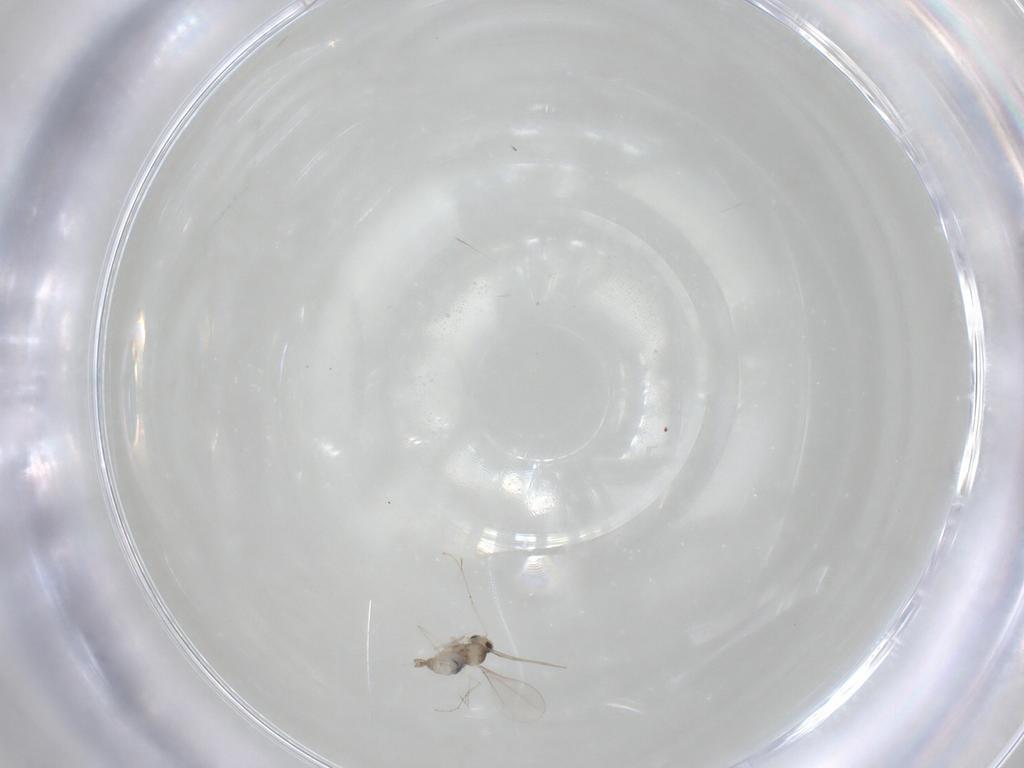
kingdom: Animalia
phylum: Arthropoda
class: Insecta
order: Diptera
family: Cecidomyiidae
